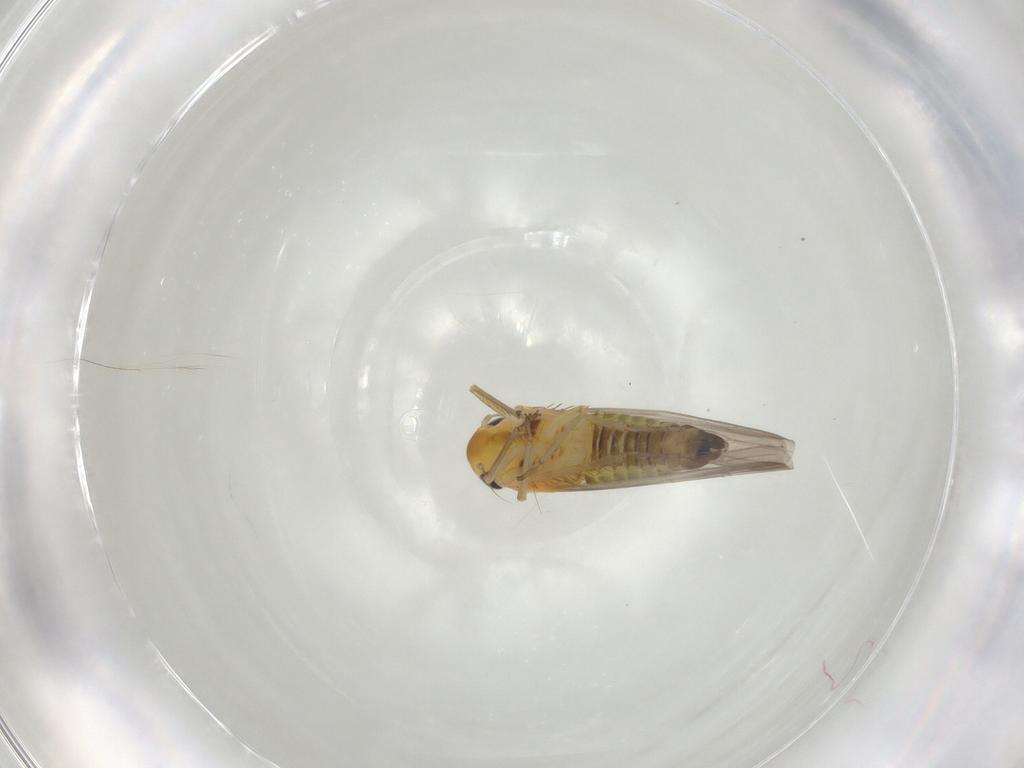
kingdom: Animalia
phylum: Arthropoda
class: Insecta
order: Hemiptera
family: Cicadellidae
